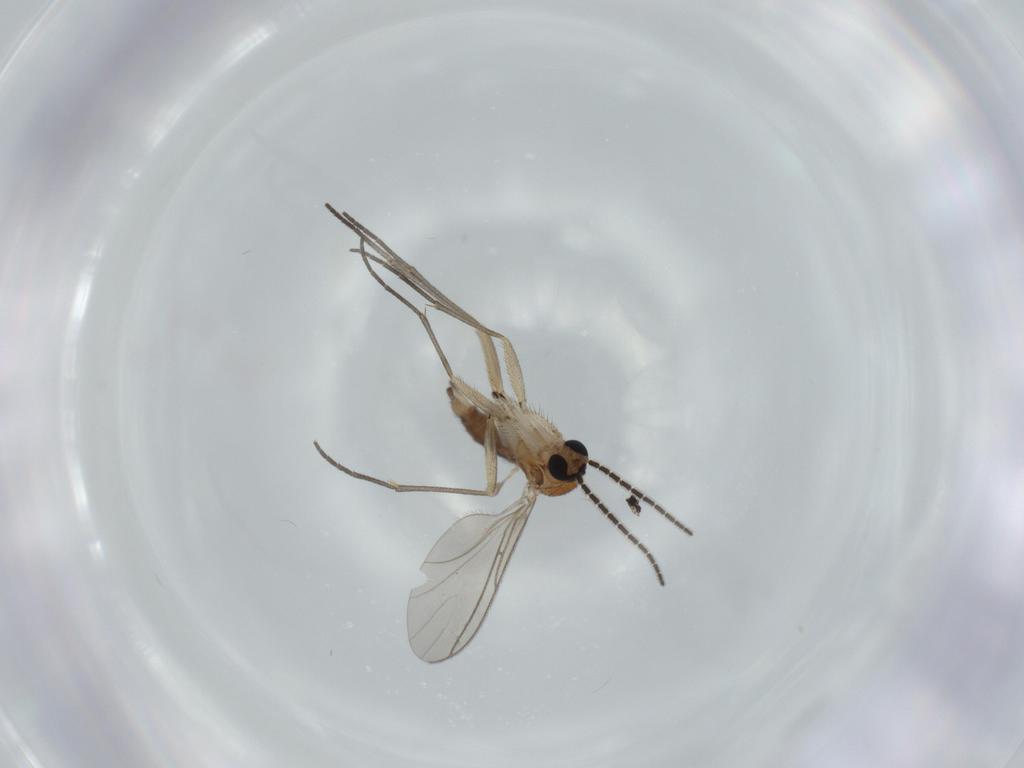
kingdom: Animalia
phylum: Arthropoda
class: Insecta
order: Diptera
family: Sciaridae
